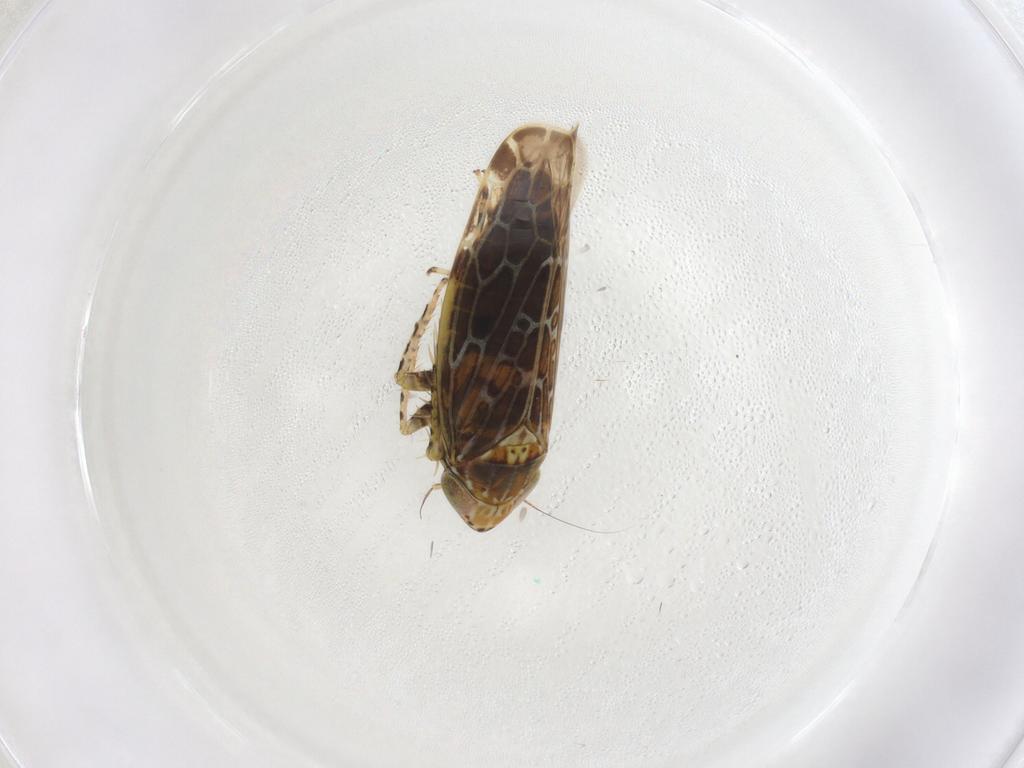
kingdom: Animalia
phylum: Arthropoda
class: Insecta
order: Hemiptera
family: Cicadellidae
